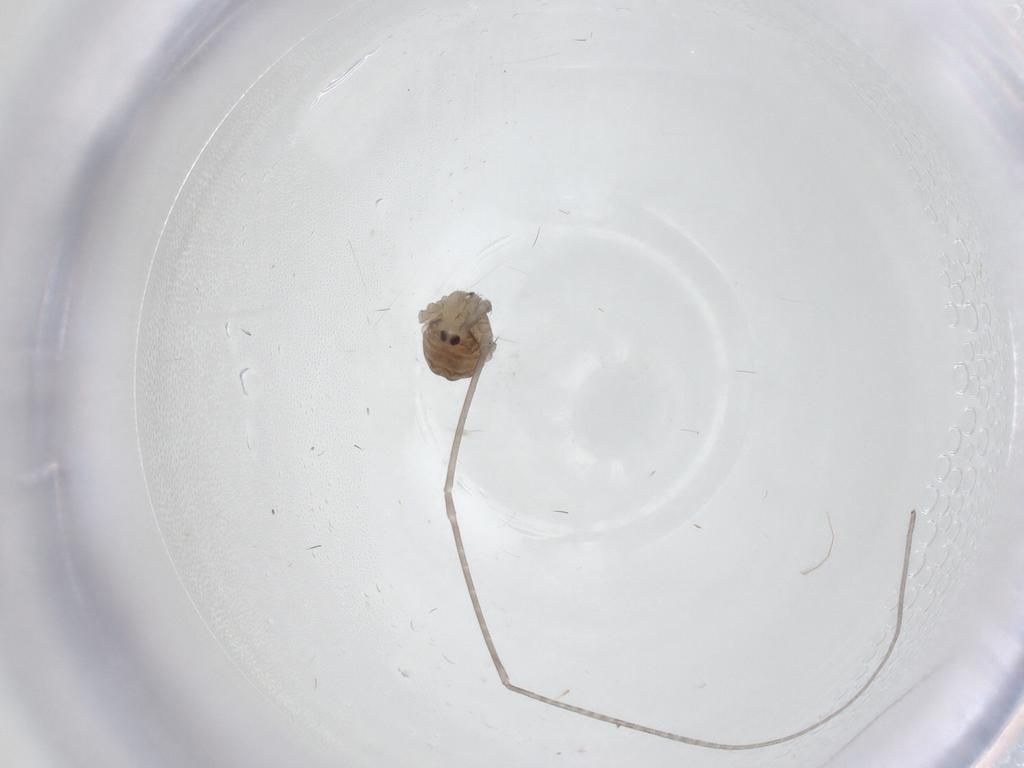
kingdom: Animalia
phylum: Arthropoda
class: Insecta
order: Diptera
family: Chironomidae
